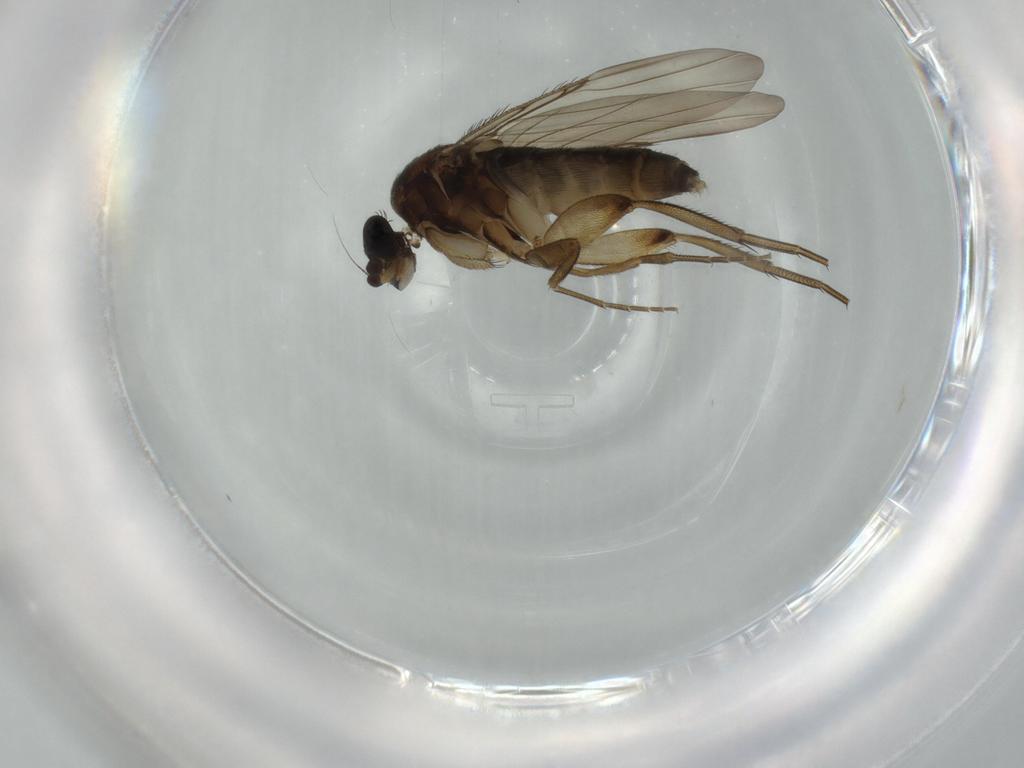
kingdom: Animalia
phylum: Arthropoda
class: Insecta
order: Diptera
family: Phoridae
